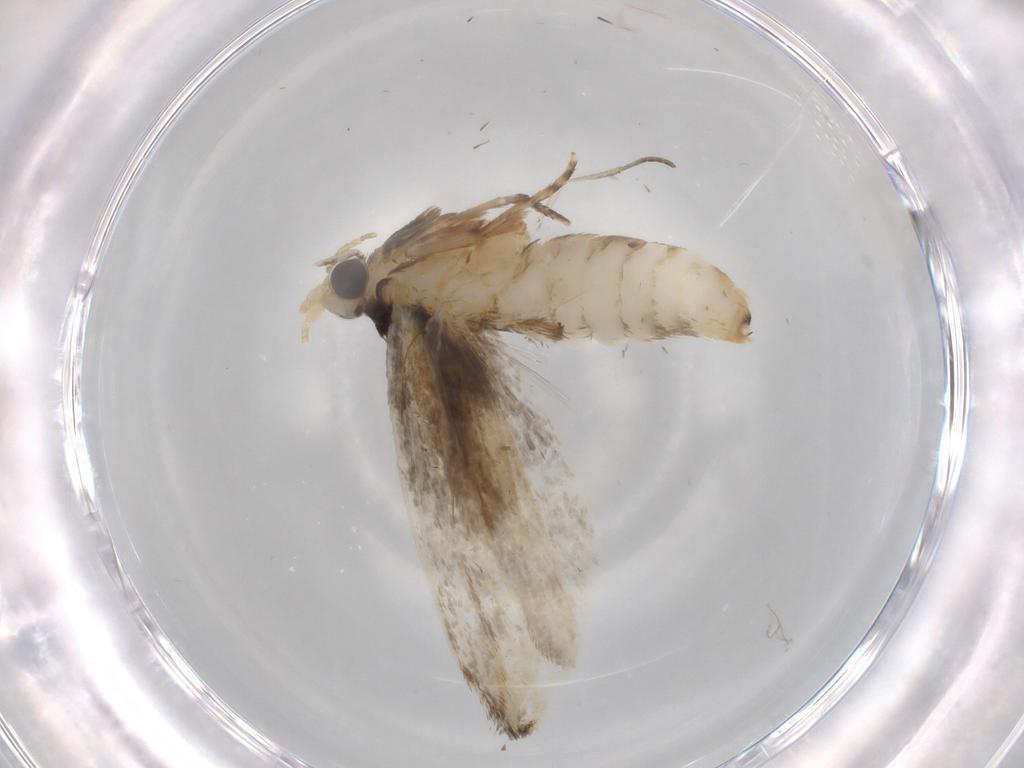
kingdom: Animalia
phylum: Arthropoda
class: Insecta
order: Lepidoptera
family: Tineidae
